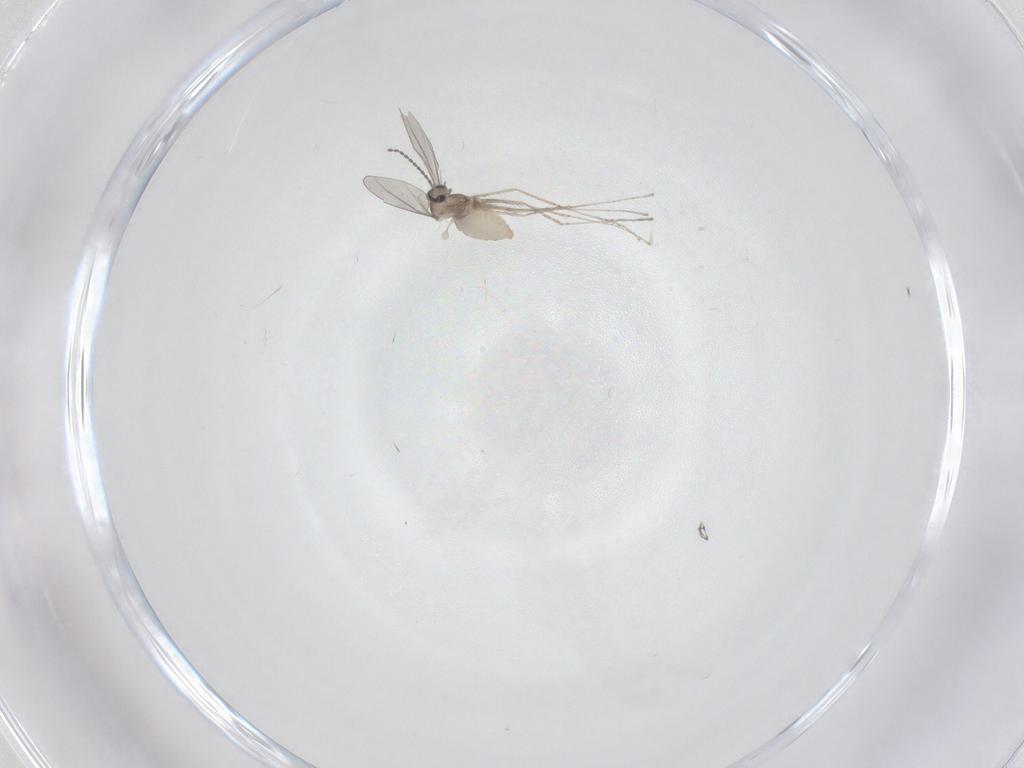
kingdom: Animalia
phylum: Arthropoda
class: Insecta
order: Diptera
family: Cecidomyiidae
